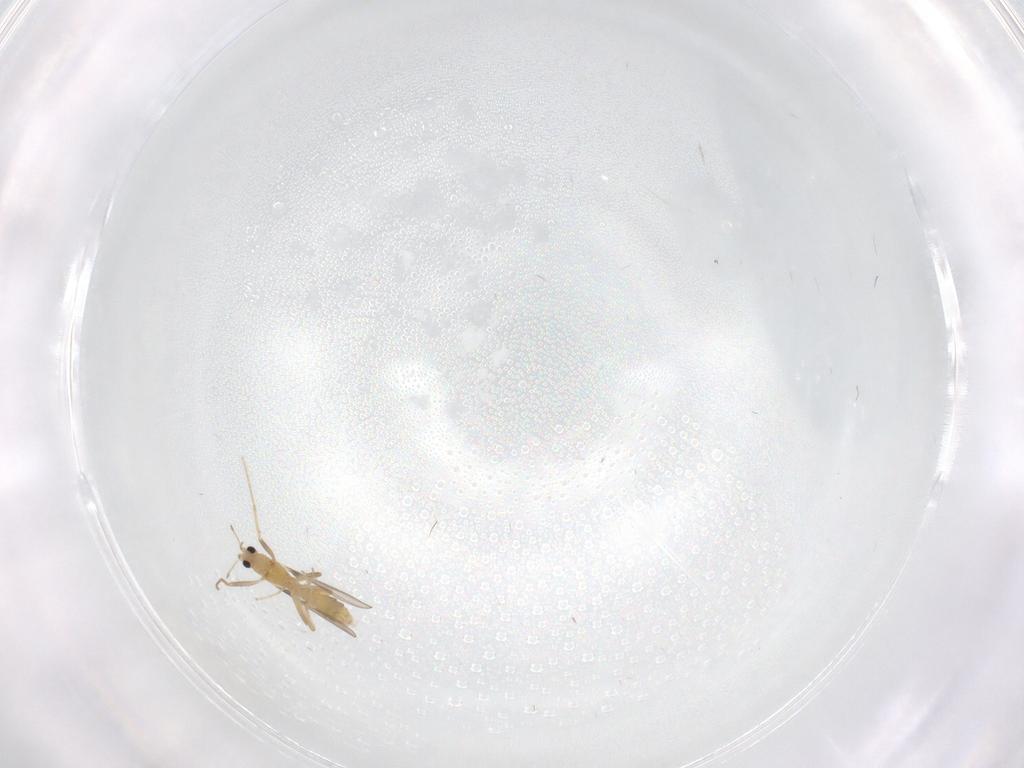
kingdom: Animalia
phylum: Arthropoda
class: Insecta
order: Diptera
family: Chironomidae
